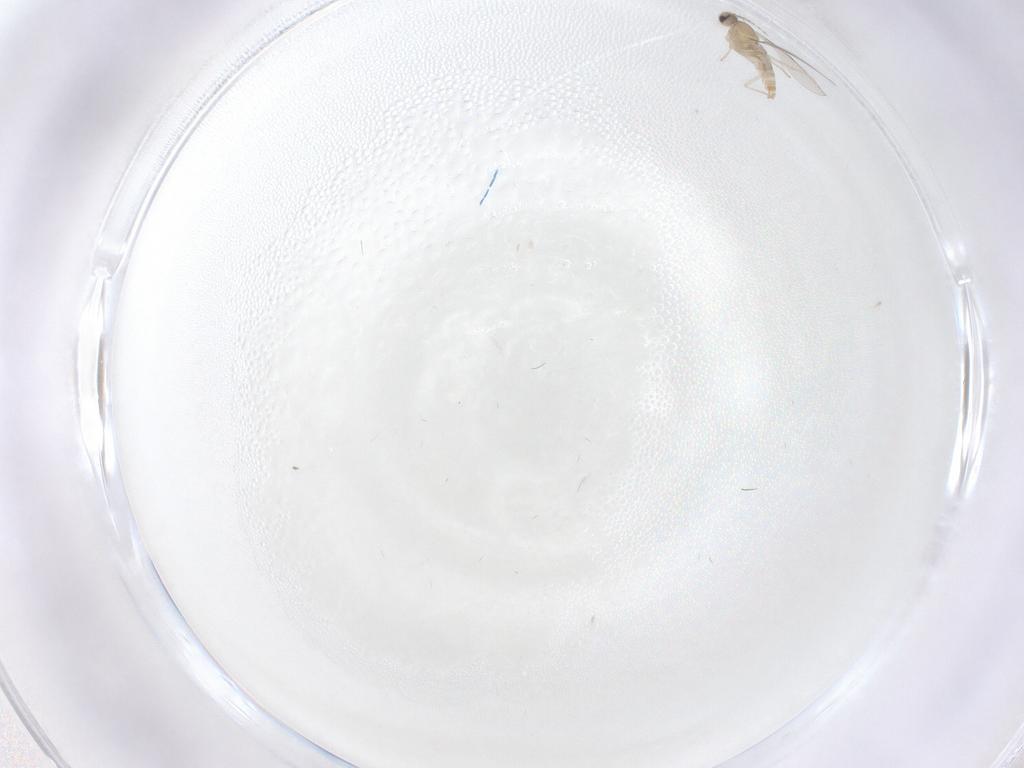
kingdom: Animalia
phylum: Arthropoda
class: Insecta
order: Diptera
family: Cecidomyiidae
